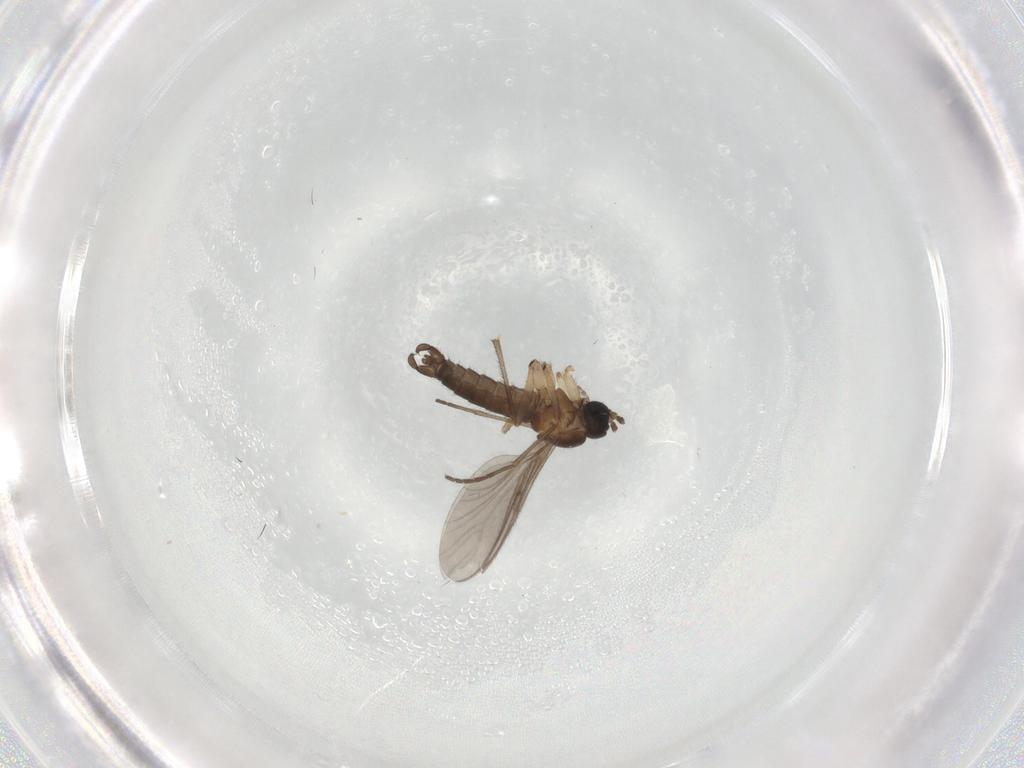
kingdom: Animalia
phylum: Arthropoda
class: Insecta
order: Diptera
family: Sciaridae
